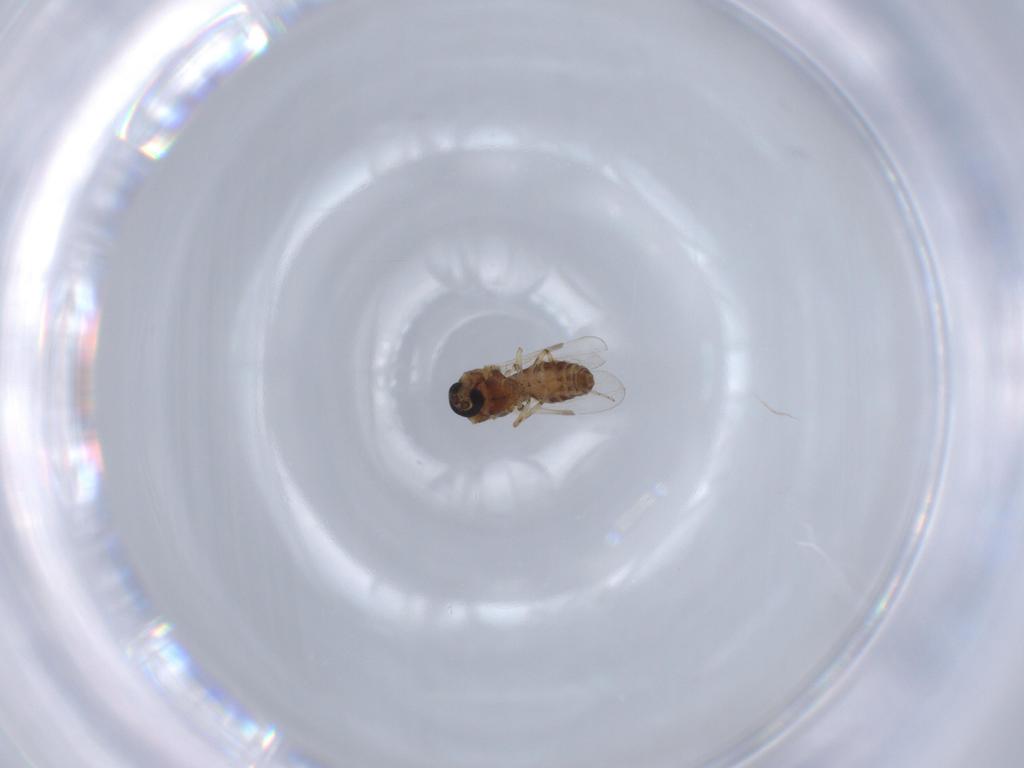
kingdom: Animalia
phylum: Arthropoda
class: Insecta
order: Diptera
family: Ceratopogonidae
